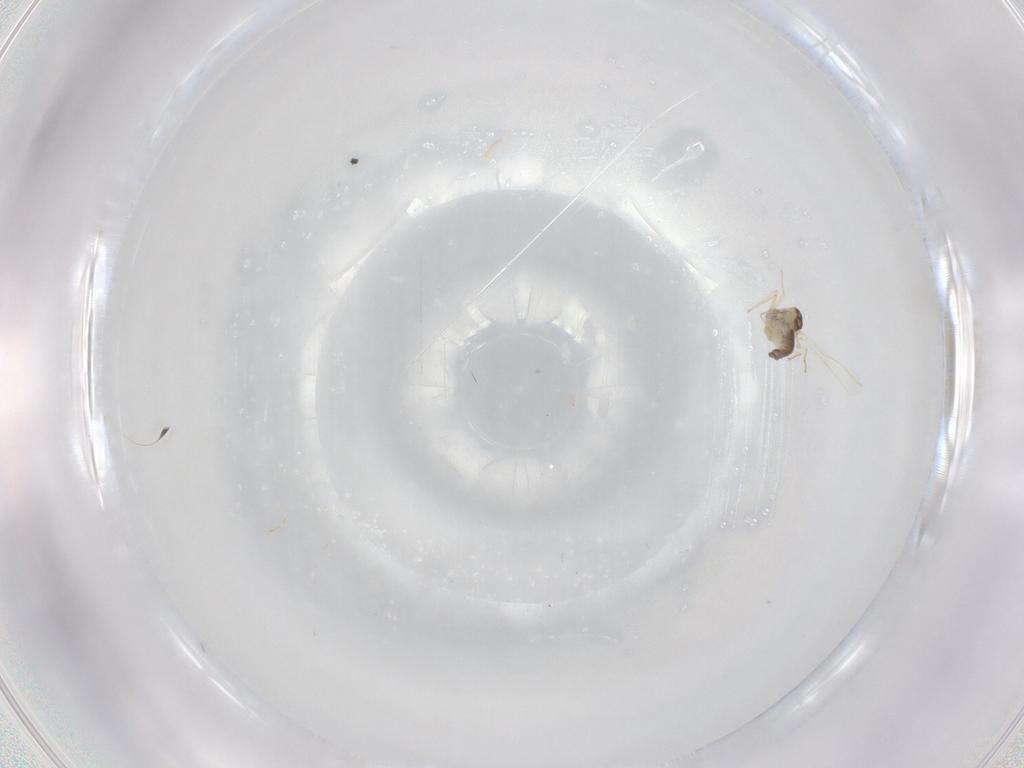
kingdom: Animalia
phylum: Arthropoda
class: Insecta
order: Diptera
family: Chironomidae
